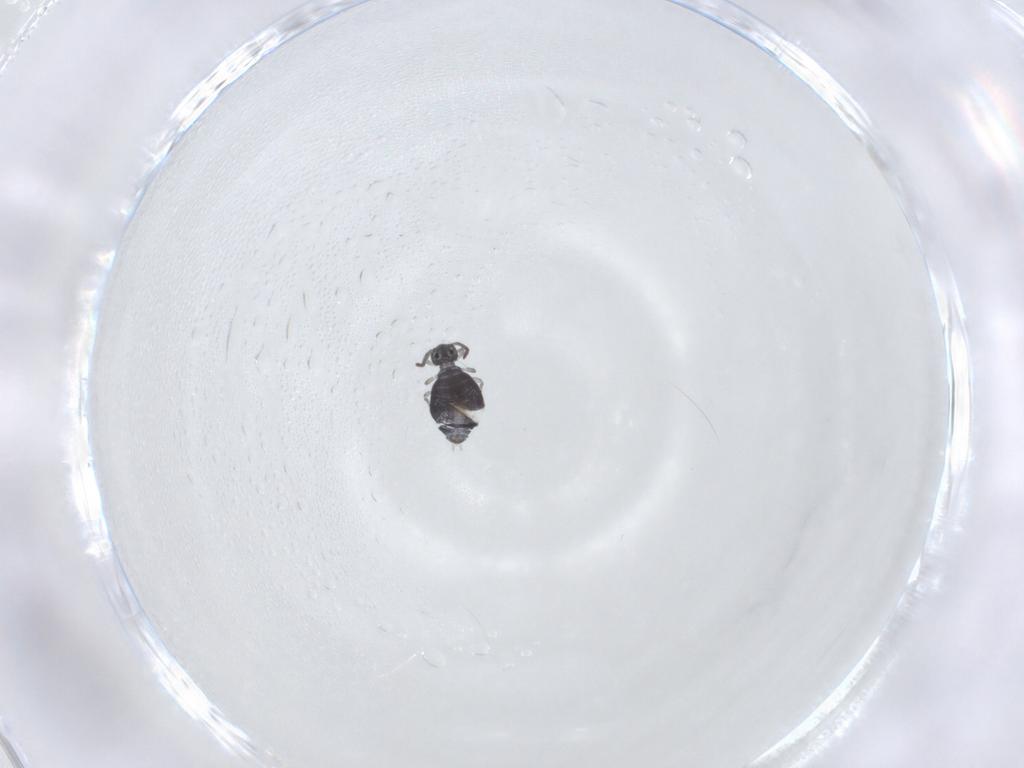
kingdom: Animalia
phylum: Arthropoda
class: Collembola
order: Symphypleona
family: Katiannidae
